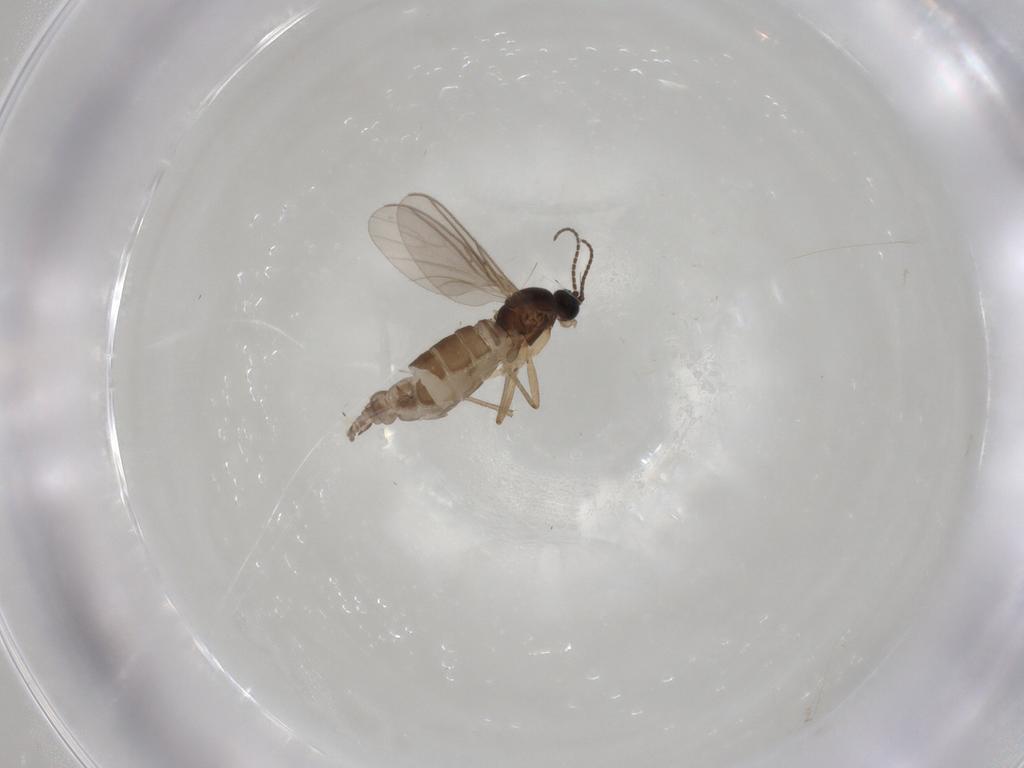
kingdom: Animalia
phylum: Arthropoda
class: Insecta
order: Diptera
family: Sciaridae
